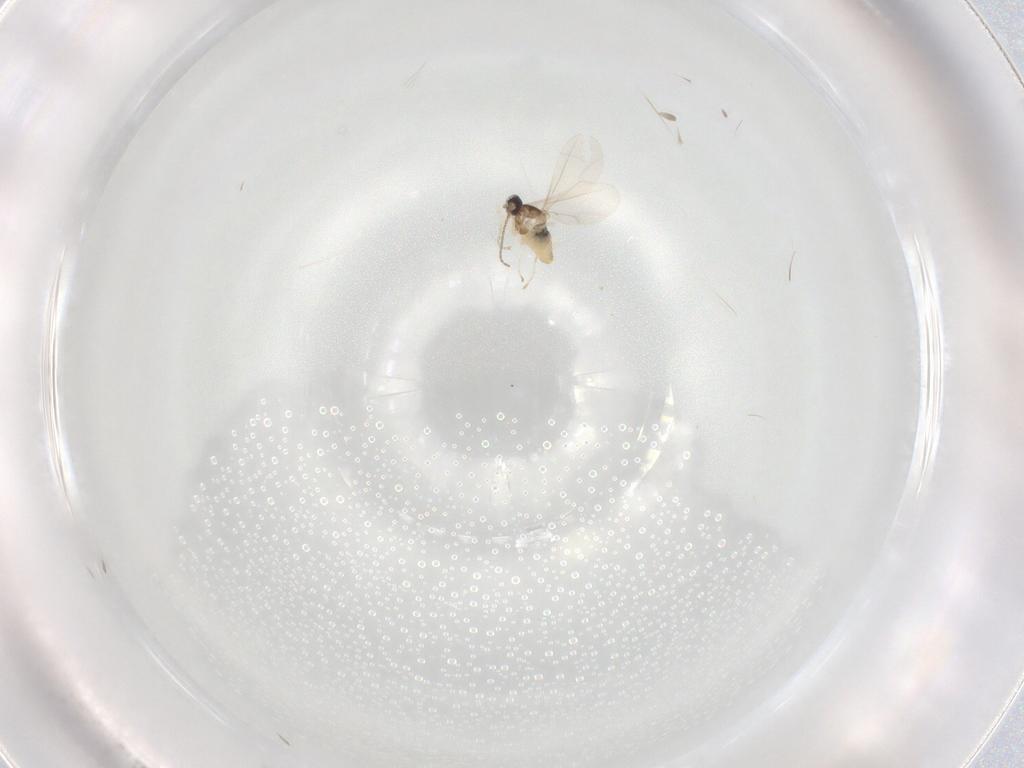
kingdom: Animalia
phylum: Arthropoda
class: Insecta
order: Diptera
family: Cecidomyiidae
